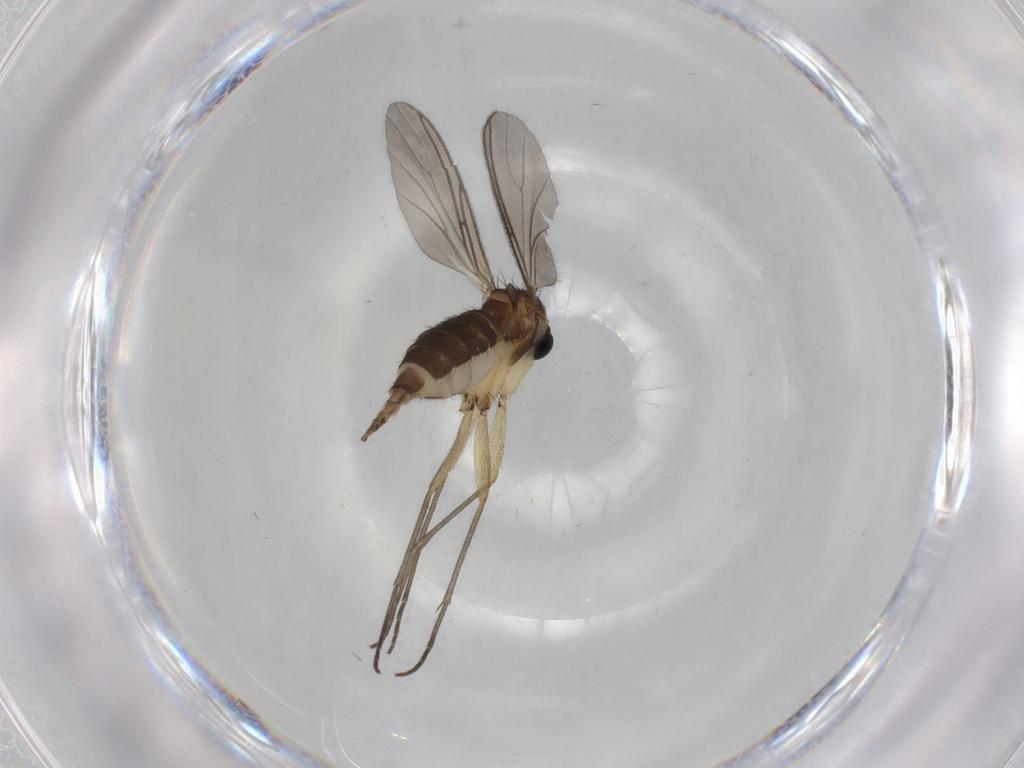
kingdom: Animalia
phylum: Arthropoda
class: Insecta
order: Diptera
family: Sciaridae
